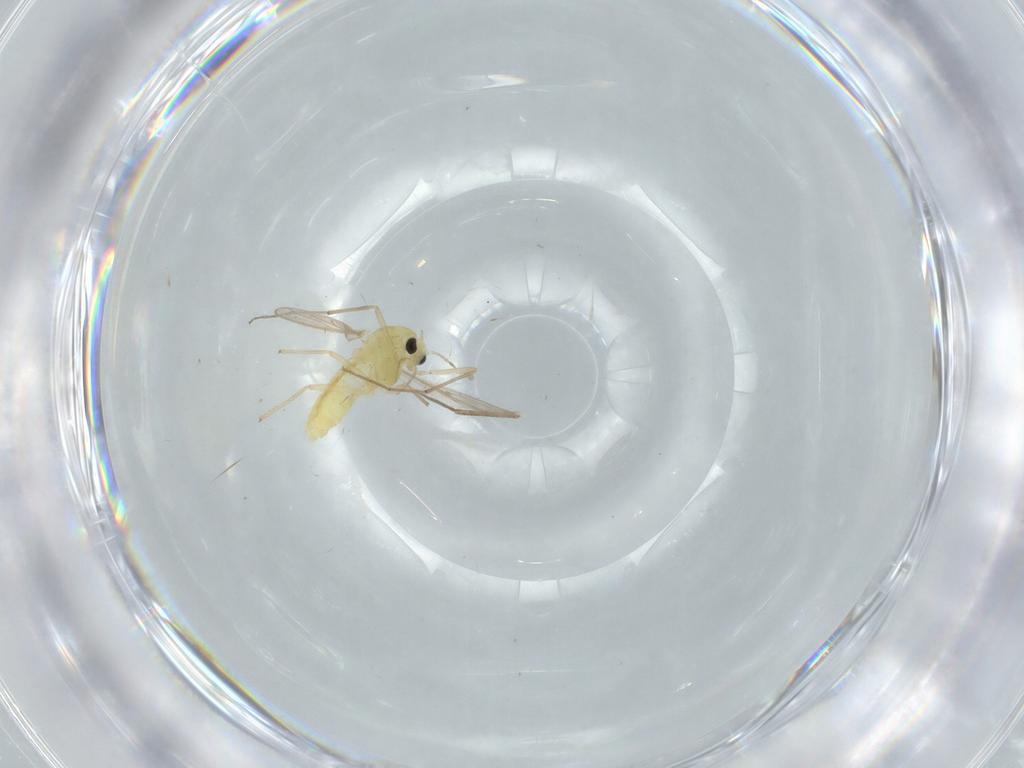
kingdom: Animalia
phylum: Arthropoda
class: Insecta
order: Diptera
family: Chironomidae
